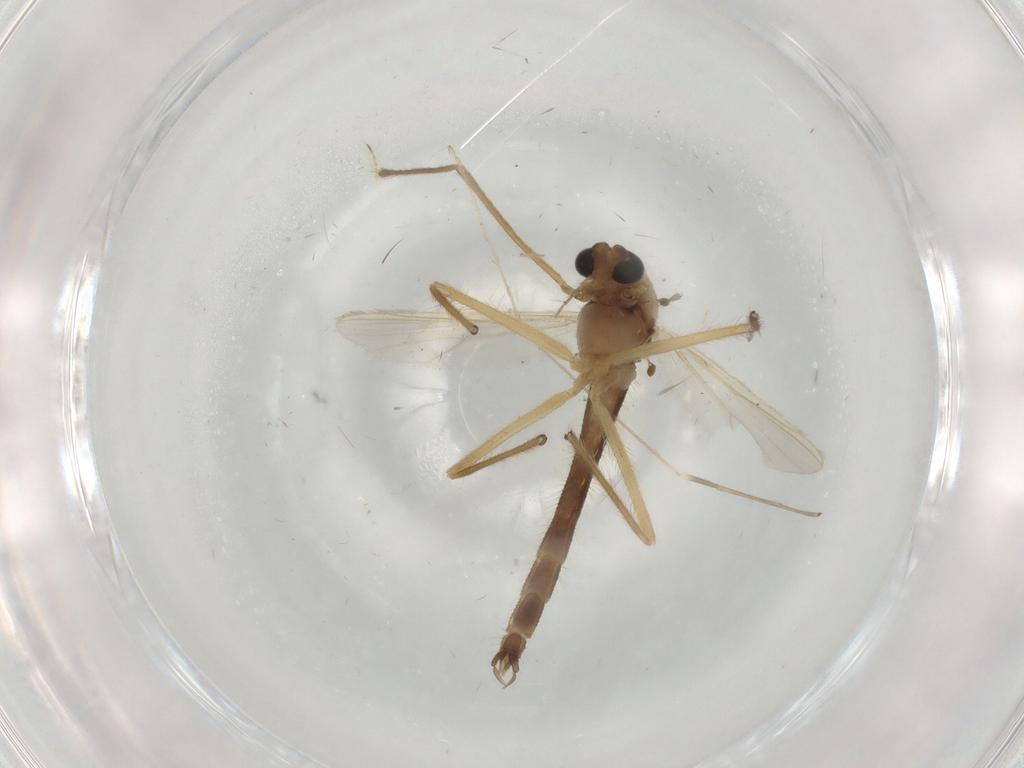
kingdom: Animalia
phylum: Arthropoda
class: Insecta
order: Diptera
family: Chironomidae
